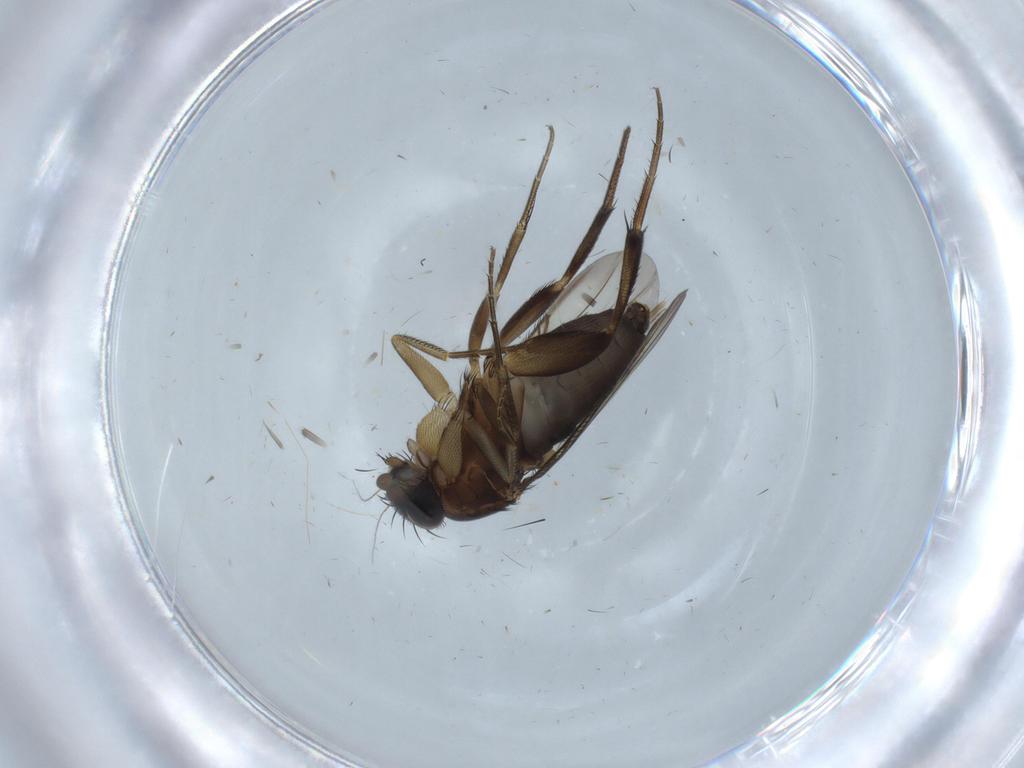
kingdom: Animalia
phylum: Arthropoda
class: Insecta
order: Diptera
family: Phoridae
